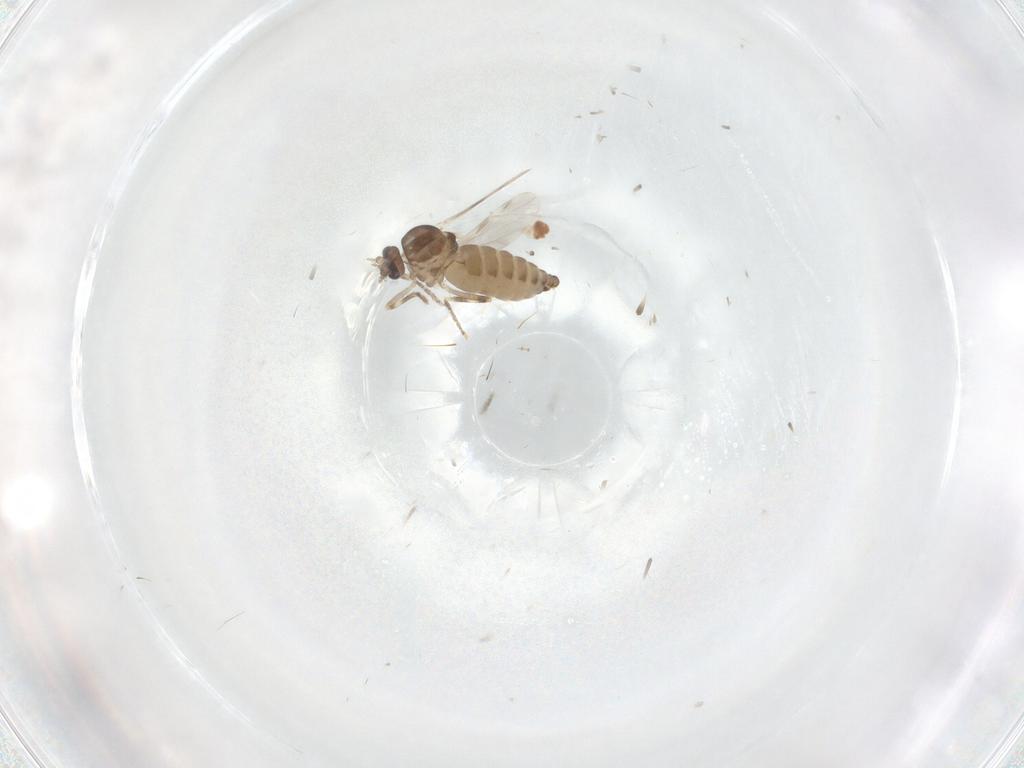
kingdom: Animalia
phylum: Arthropoda
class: Insecta
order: Diptera
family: Ceratopogonidae
